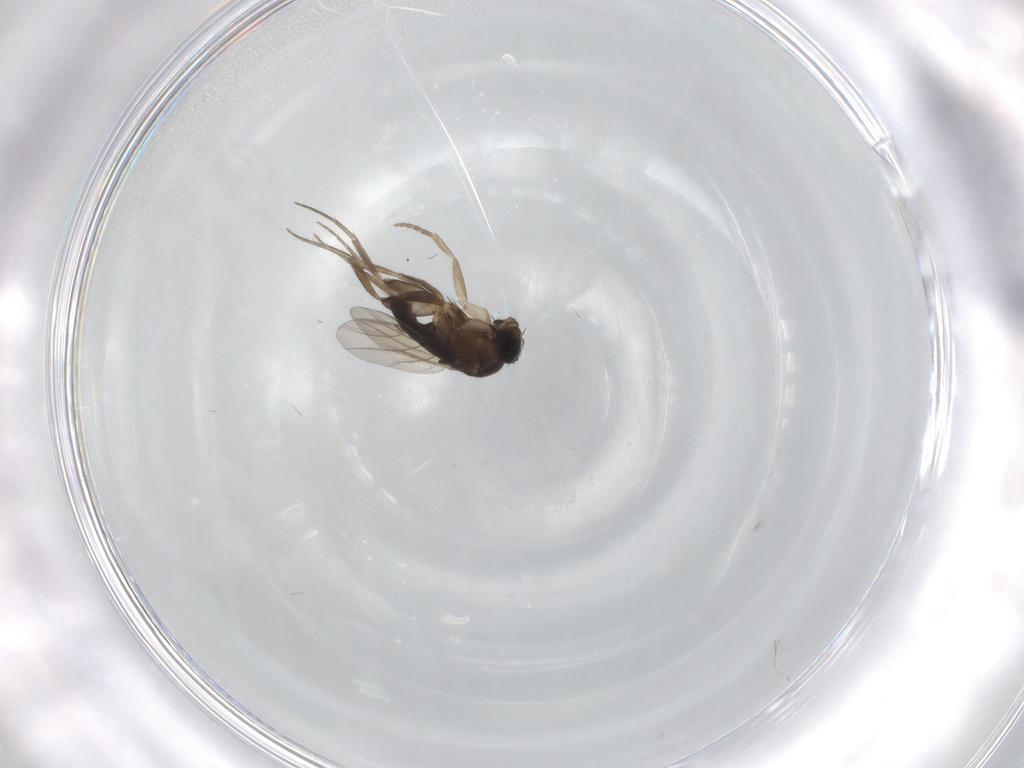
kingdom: Animalia
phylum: Arthropoda
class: Insecta
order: Diptera
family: Phoridae
